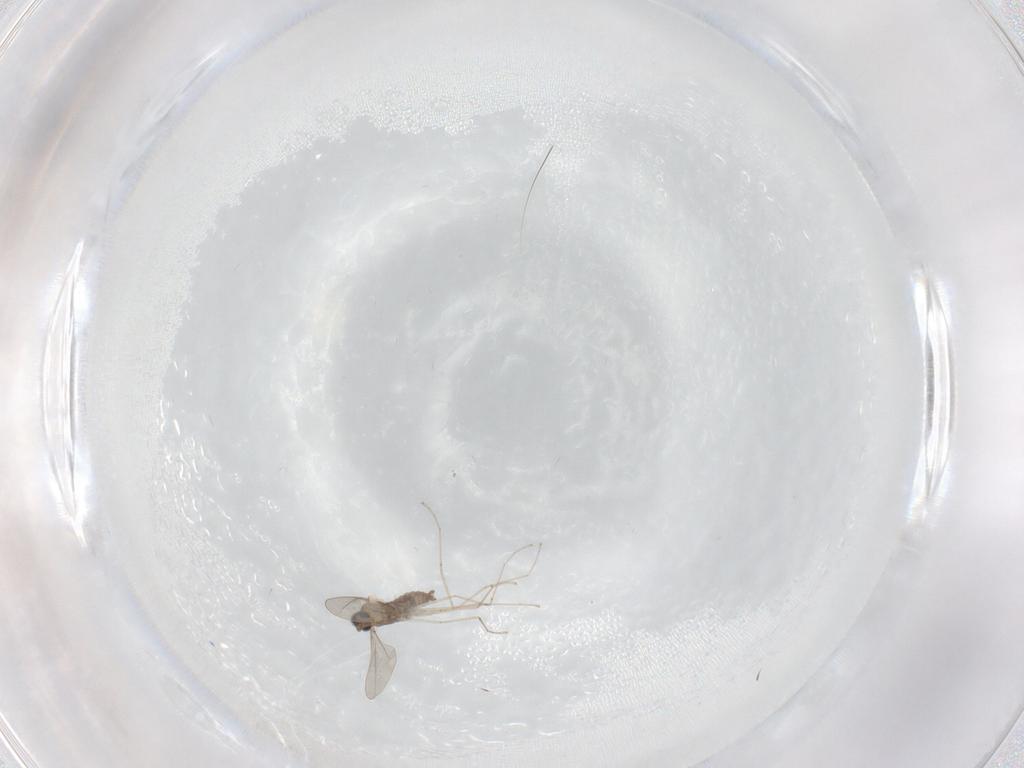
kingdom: Animalia
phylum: Arthropoda
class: Insecta
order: Diptera
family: Cecidomyiidae
